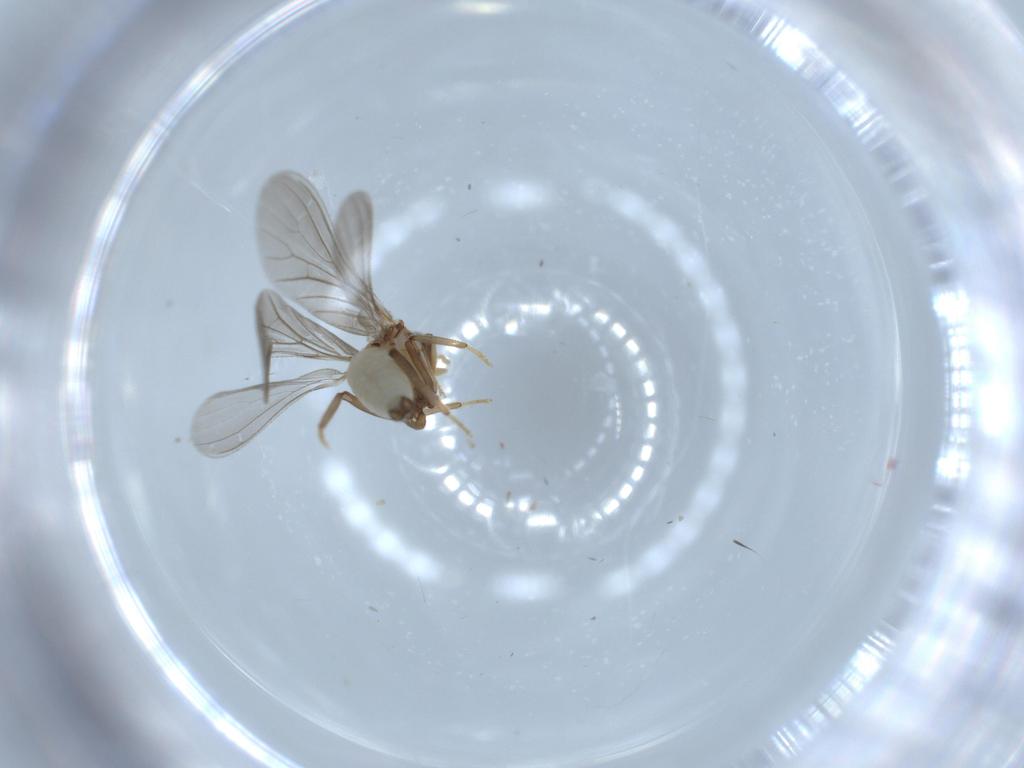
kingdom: Animalia
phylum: Arthropoda
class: Insecta
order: Neuroptera
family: Coniopterygidae
